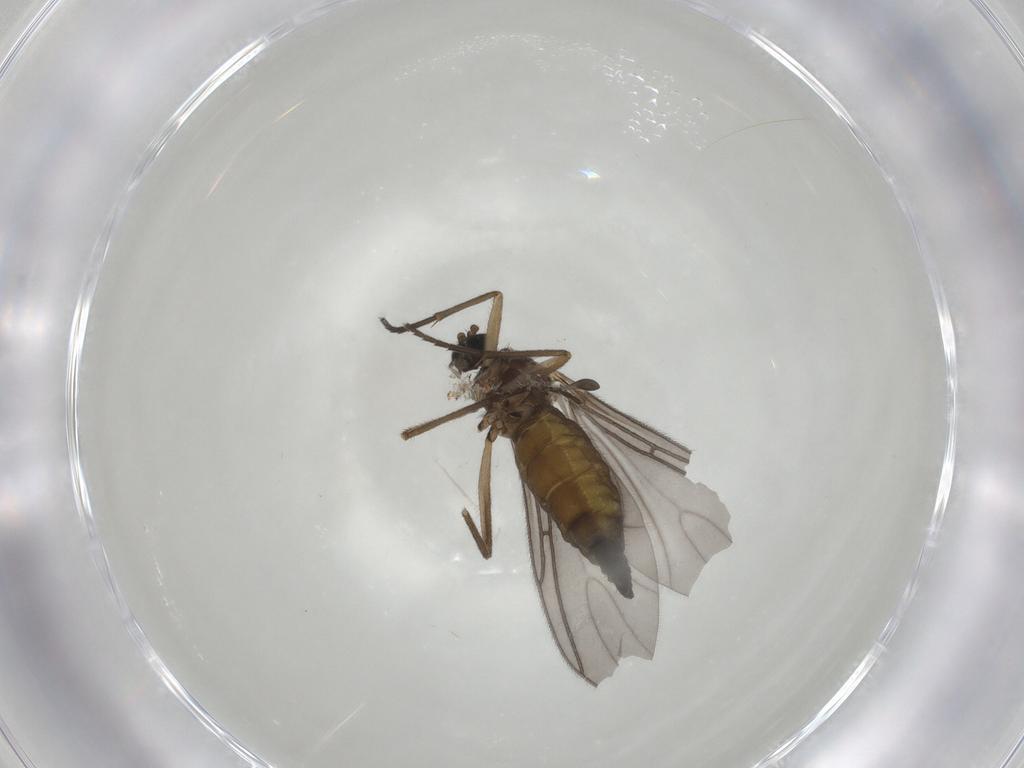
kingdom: Animalia
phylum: Arthropoda
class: Insecta
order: Diptera
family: Sciaridae
